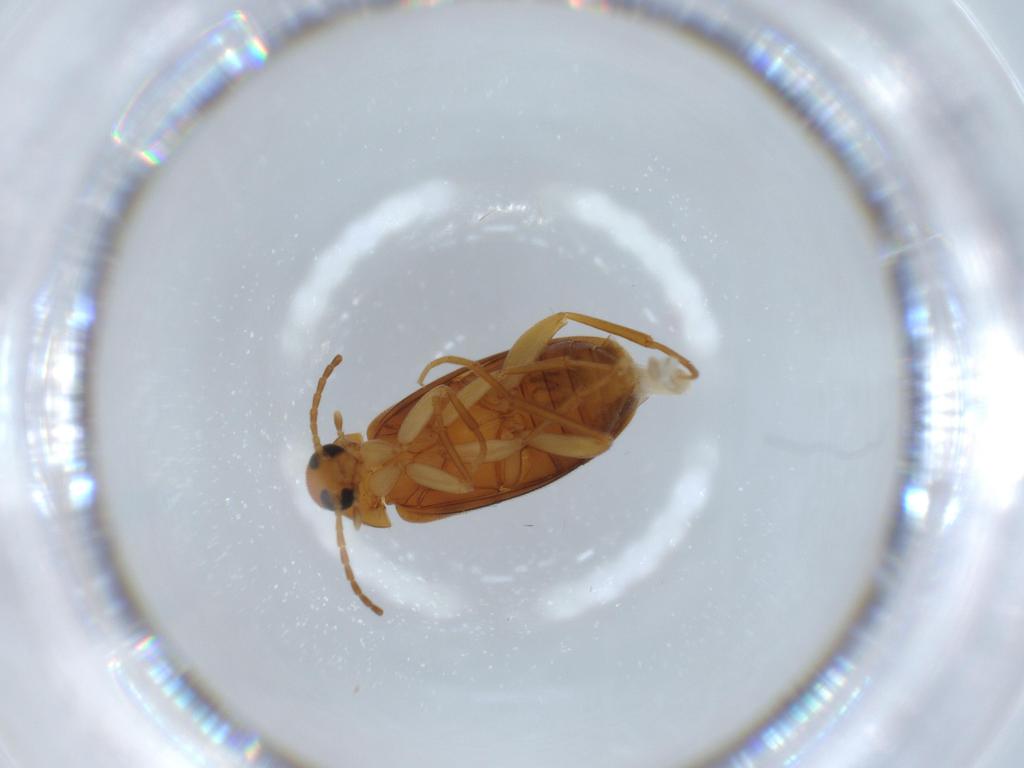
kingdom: Animalia
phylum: Arthropoda
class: Insecta
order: Coleoptera
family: Scraptiidae
